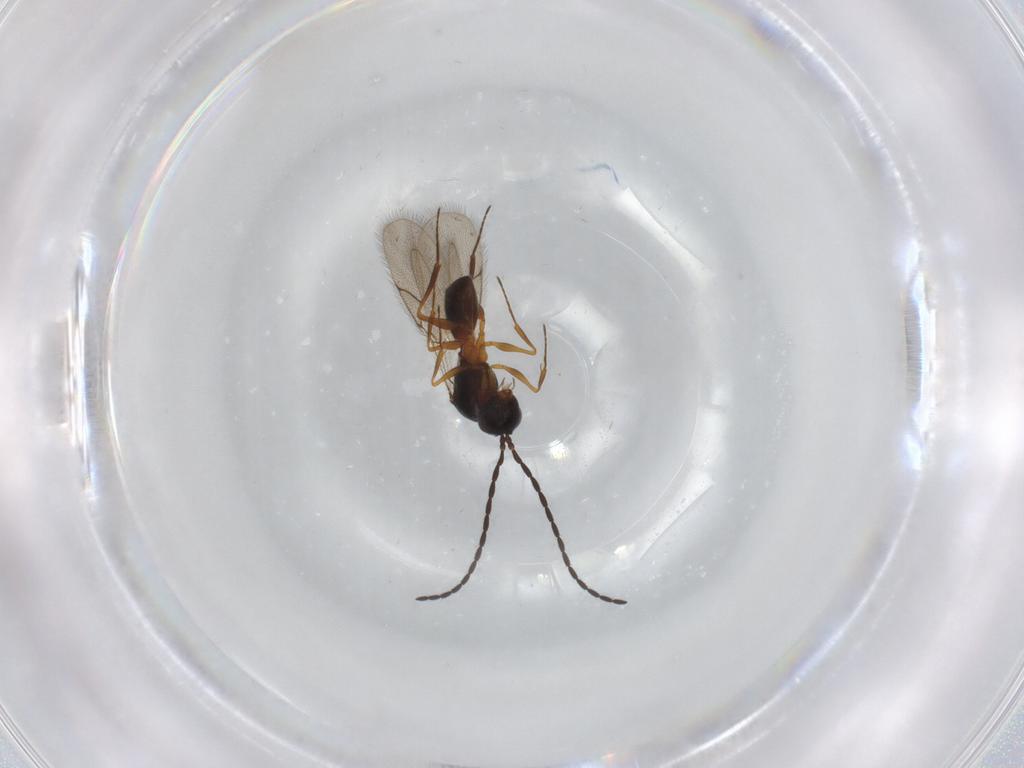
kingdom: Animalia
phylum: Arthropoda
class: Insecta
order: Hymenoptera
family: Figitidae
